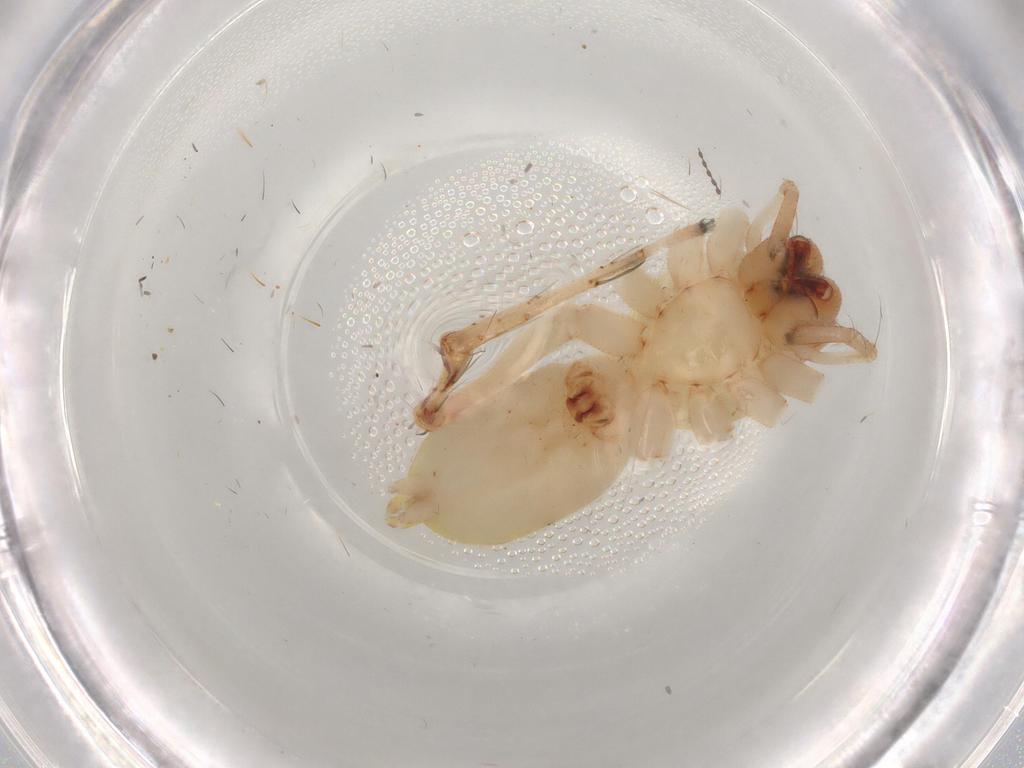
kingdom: Animalia
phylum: Arthropoda
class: Arachnida
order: Araneae
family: Anyphaenidae
